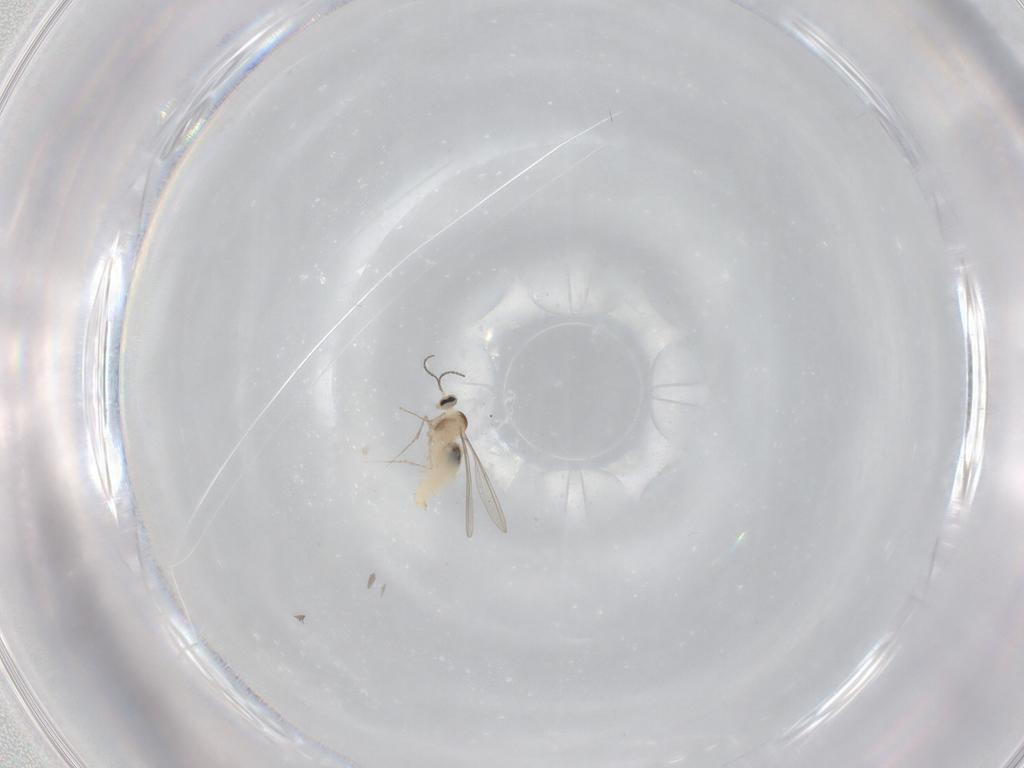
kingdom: Animalia
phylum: Arthropoda
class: Insecta
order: Diptera
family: Cecidomyiidae
